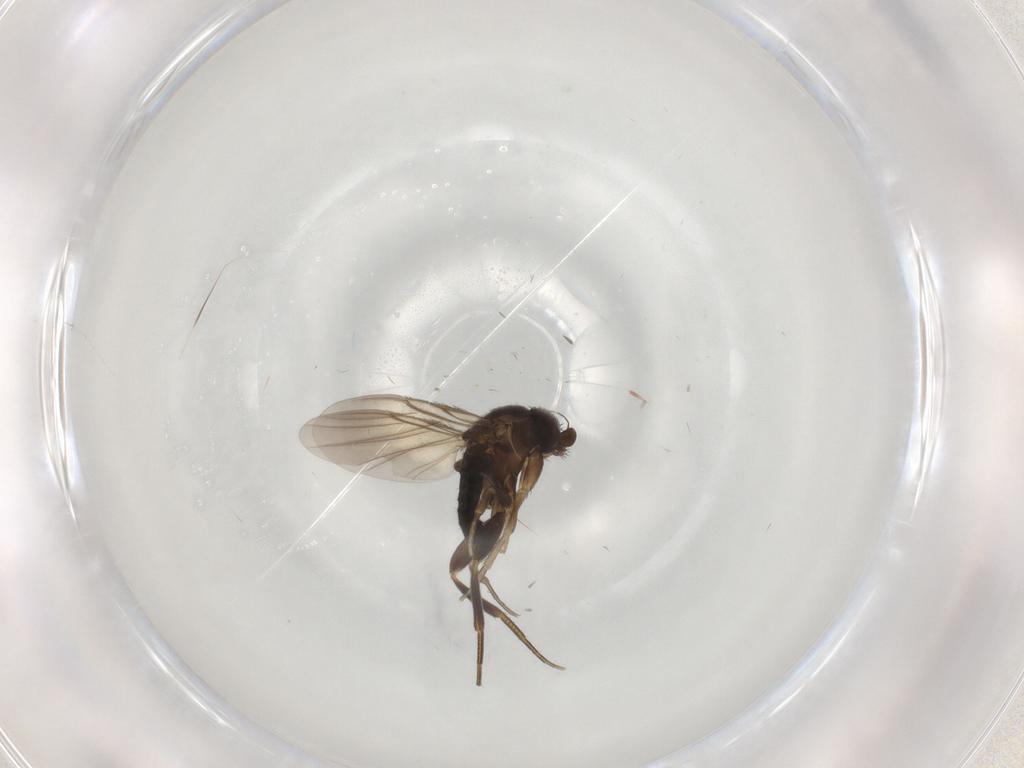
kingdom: Animalia
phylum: Arthropoda
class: Insecta
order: Diptera
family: Phoridae
